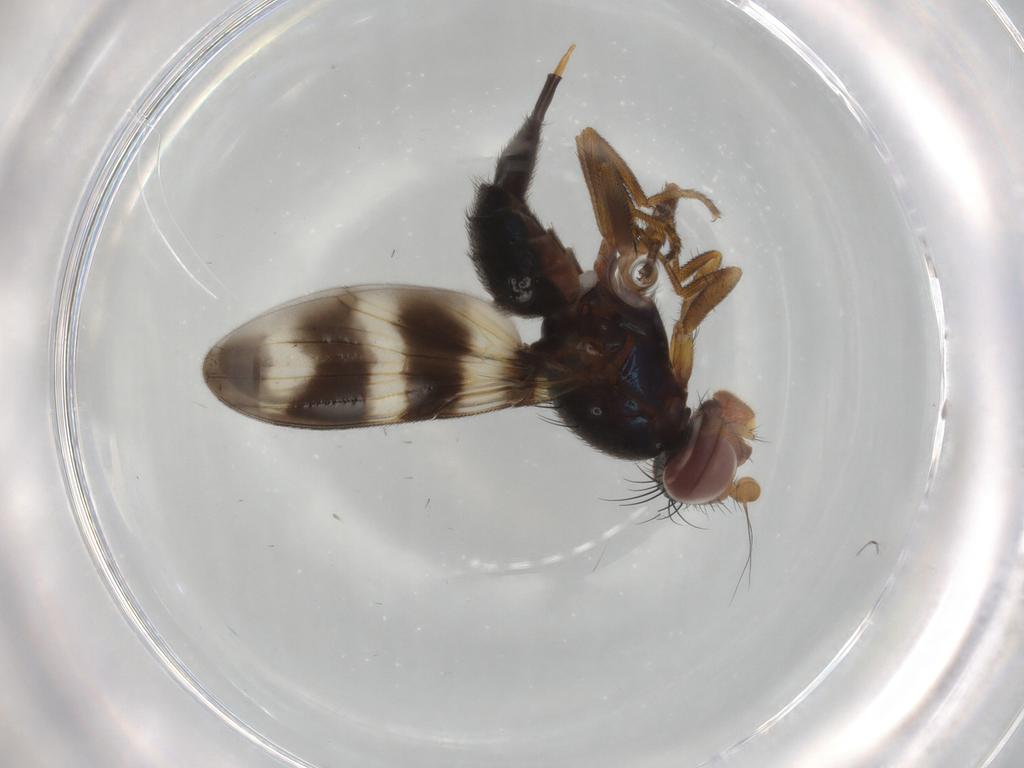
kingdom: Animalia
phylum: Arthropoda
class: Insecta
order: Diptera
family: Ulidiidae
